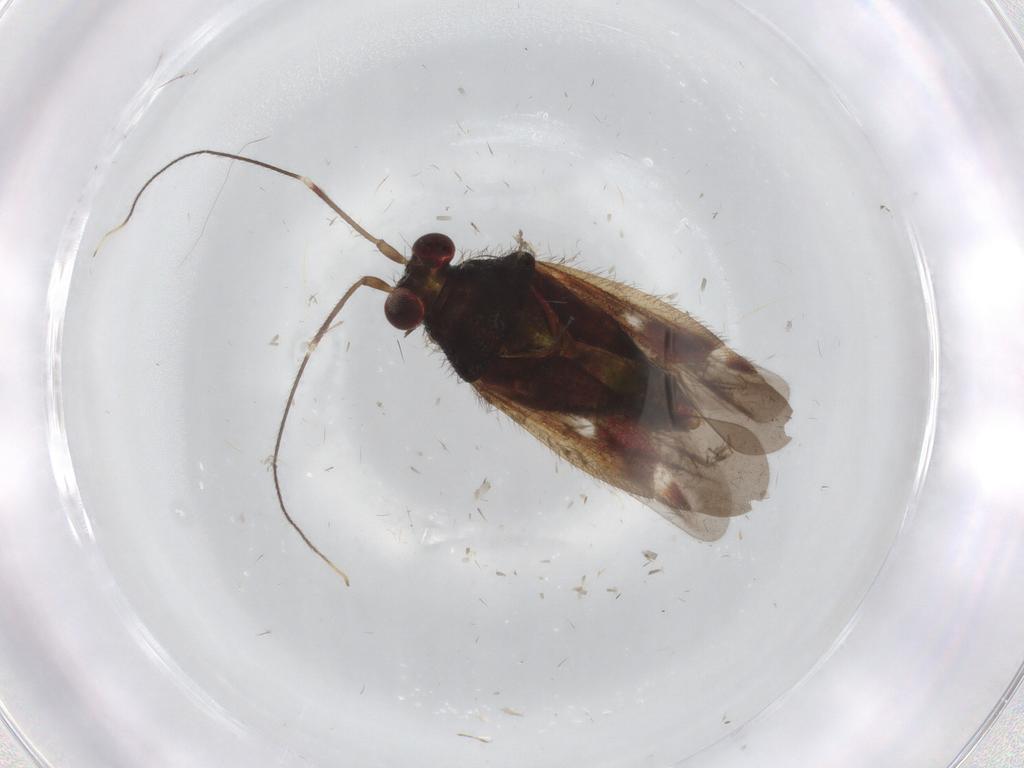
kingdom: Animalia
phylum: Arthropoda
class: Insecta
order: Hemiptera
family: Miridae
